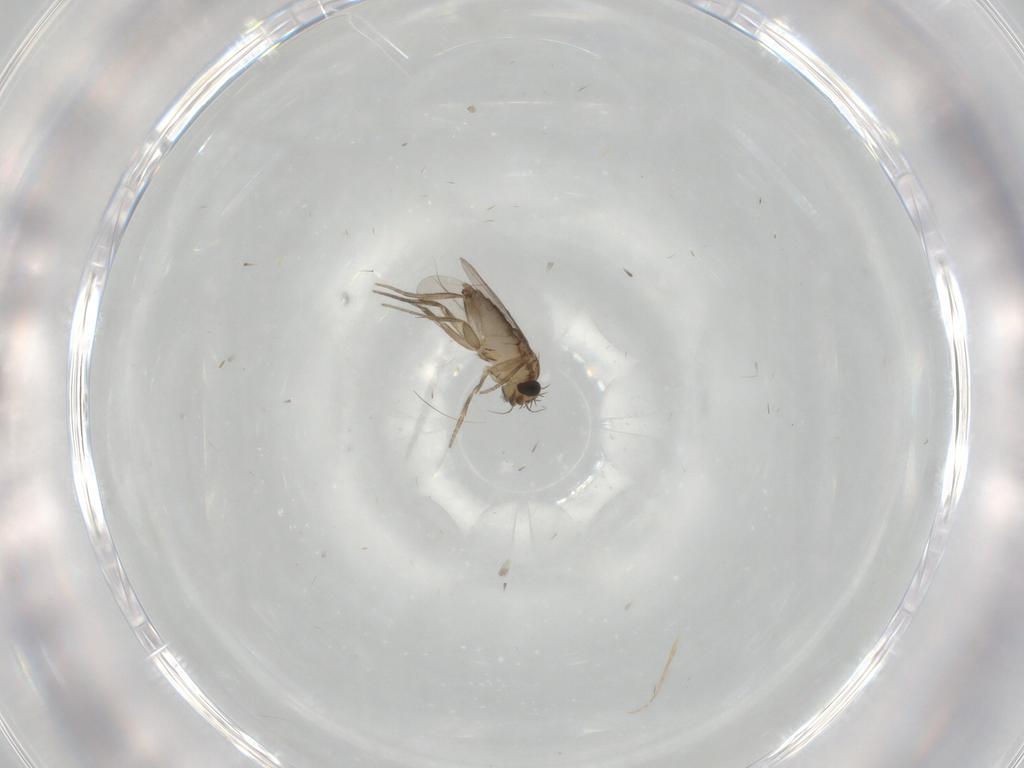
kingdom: Animalia
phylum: Arthropoda
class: Insecta
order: Diptera
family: Phoridae
